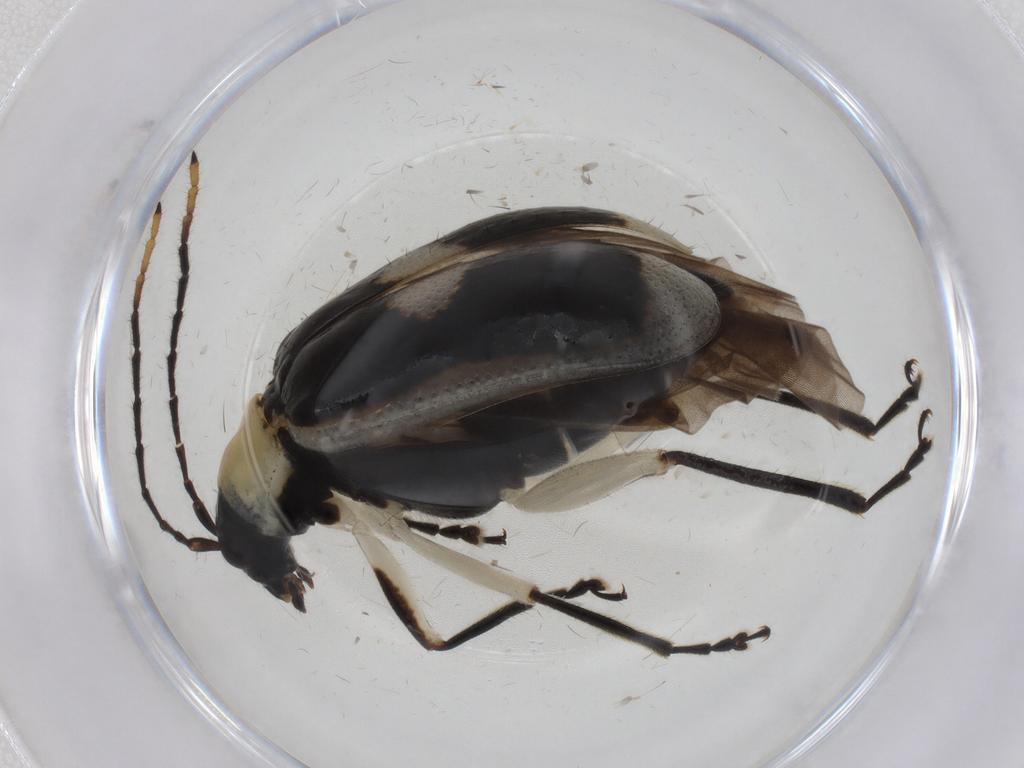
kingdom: Animalia
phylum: Arthropoda
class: Insecta
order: Coleoptera
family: Chrysomelidae
